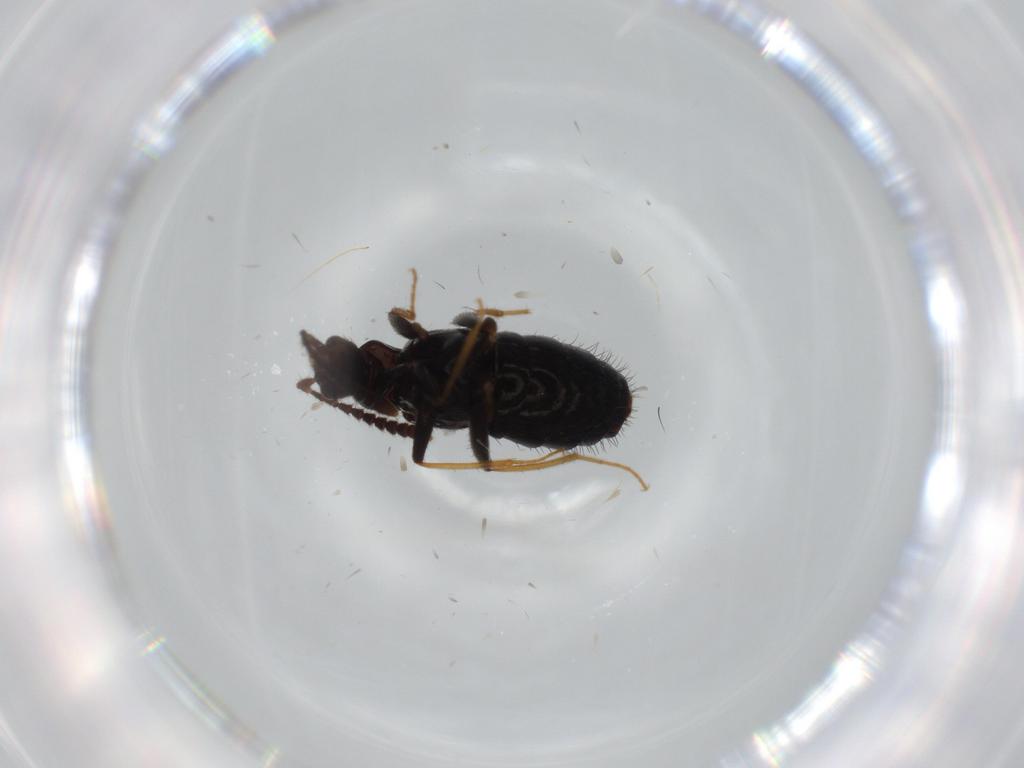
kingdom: Animalia
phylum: Arthropoda
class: Insecta
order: Coleoptera
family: Staphylinidae
